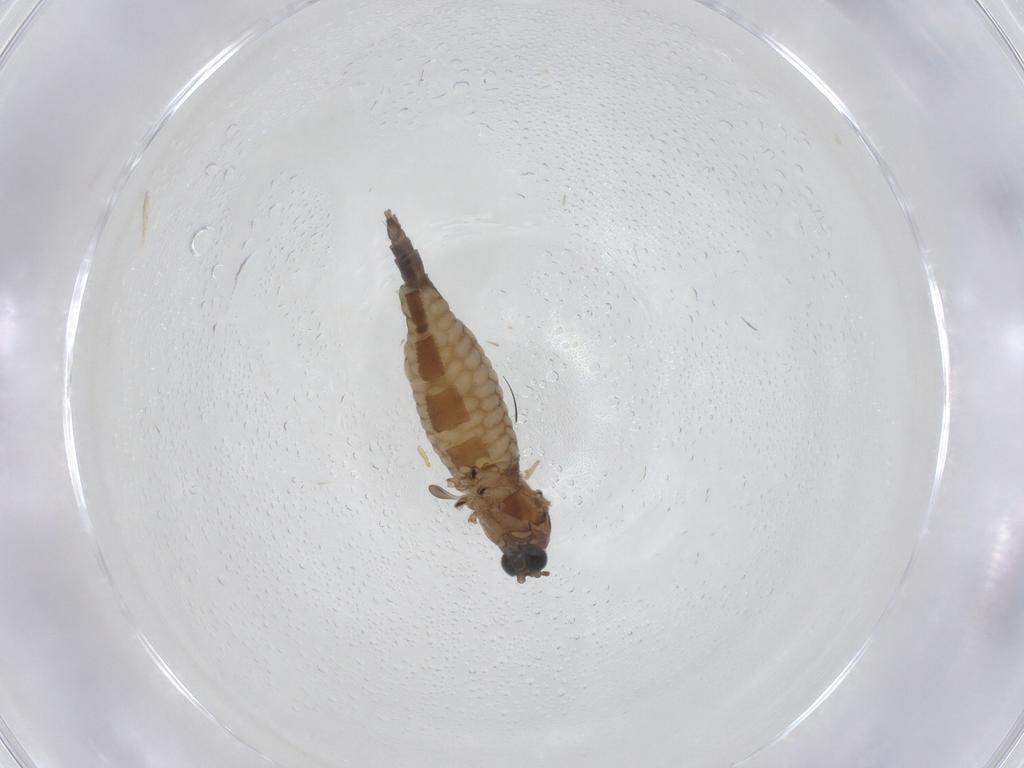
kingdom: Animalia
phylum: Arthropoda
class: Insecta
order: Diptera
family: Sciaridae
